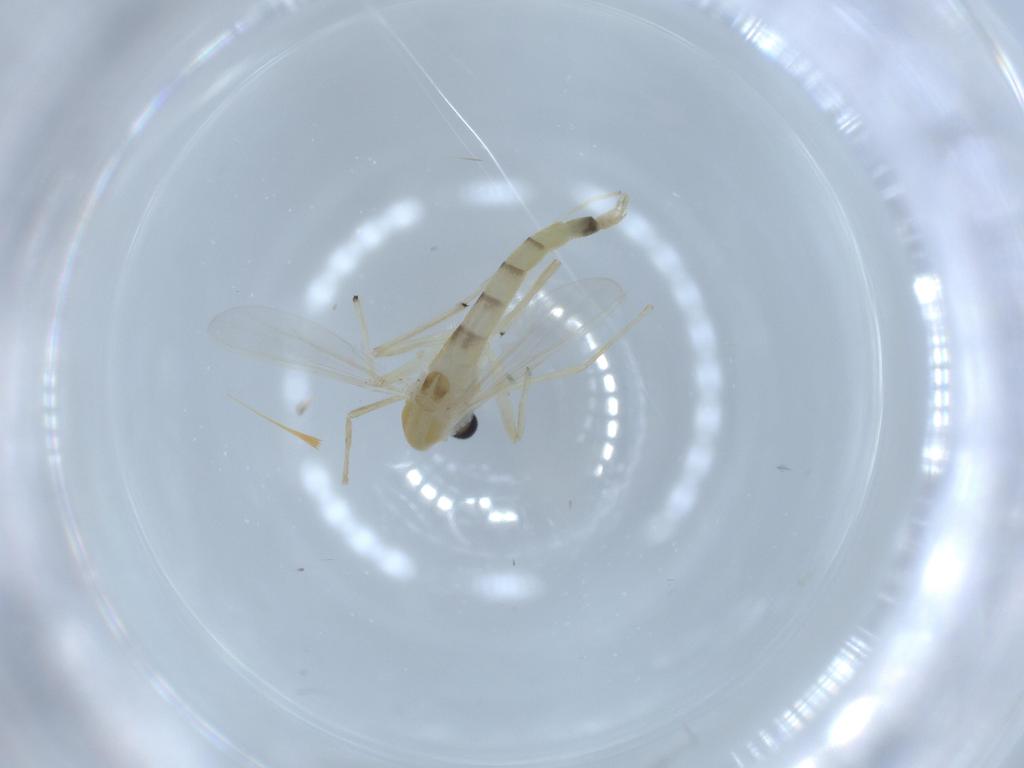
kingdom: Animalia
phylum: Arthropoda
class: Insecta
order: Diptera
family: Chironomidae
